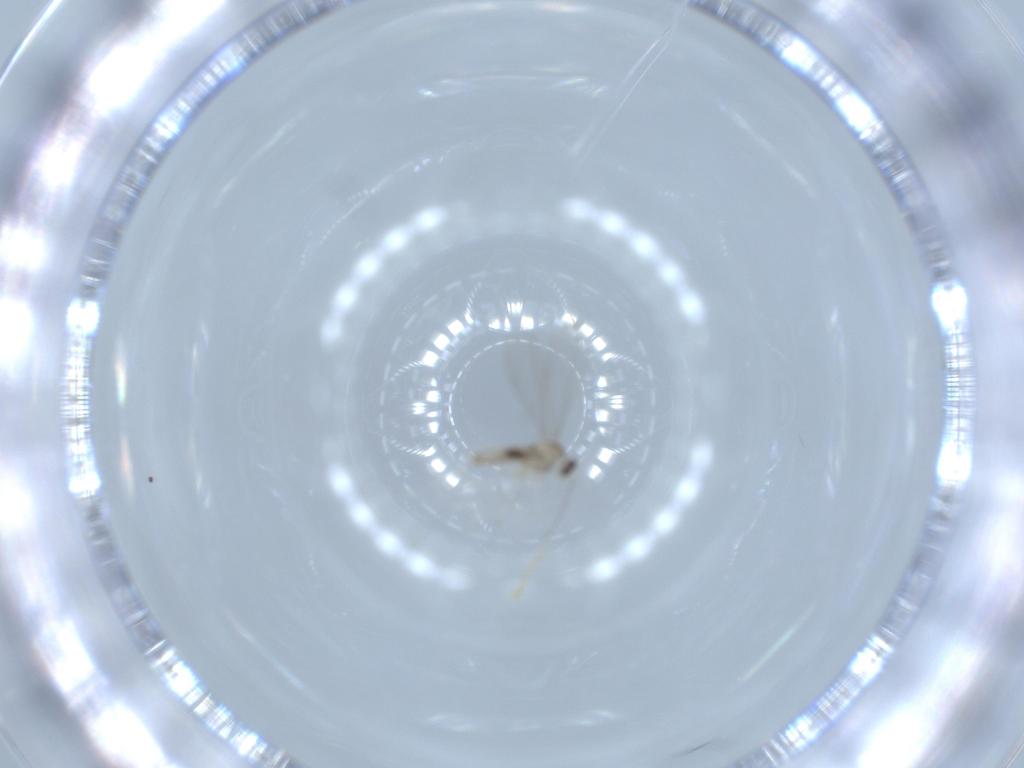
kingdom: Animalia
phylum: Arthropoda
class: Insecta
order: Diptera
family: Cecidomyiidae
